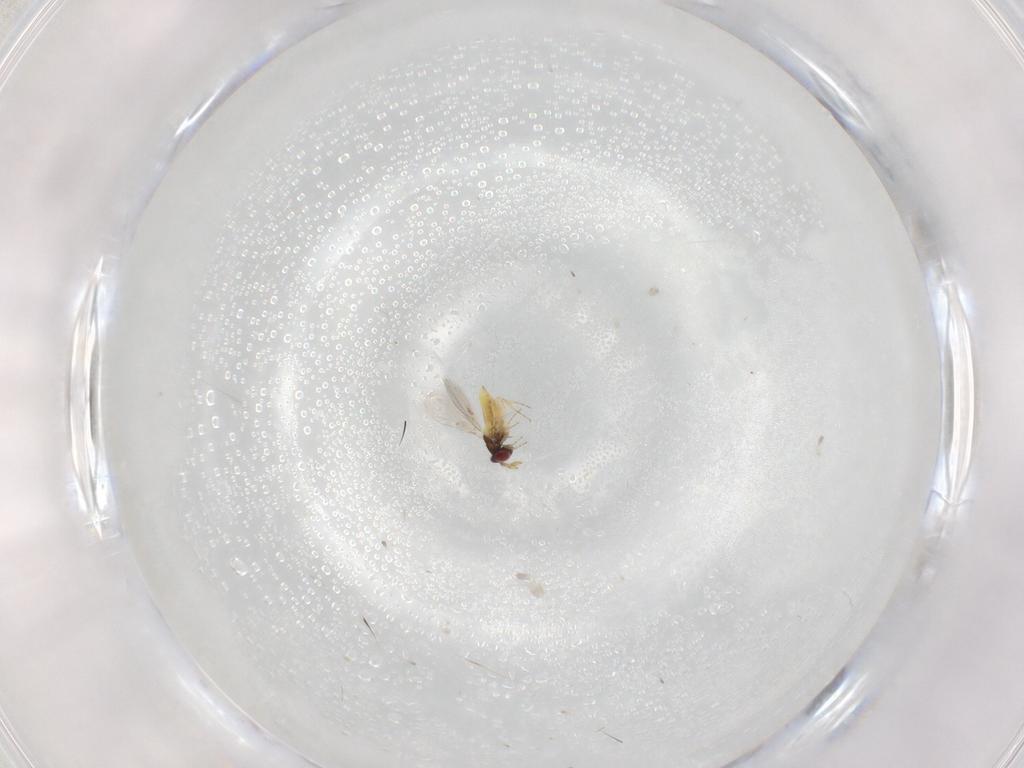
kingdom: Animalia
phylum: Arthropoda
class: Insecta
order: Hymenoptera
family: Trichogrammatidae
